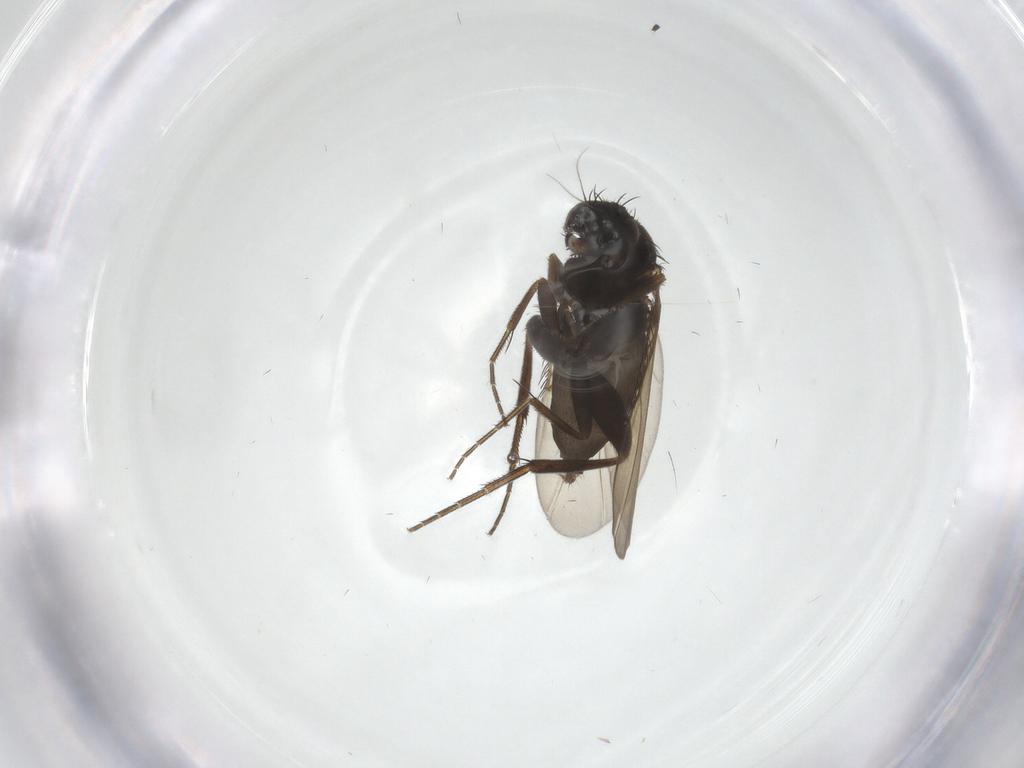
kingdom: Animalia
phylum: Arthropoda
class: Insecta
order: Diptera
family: Phoridae
